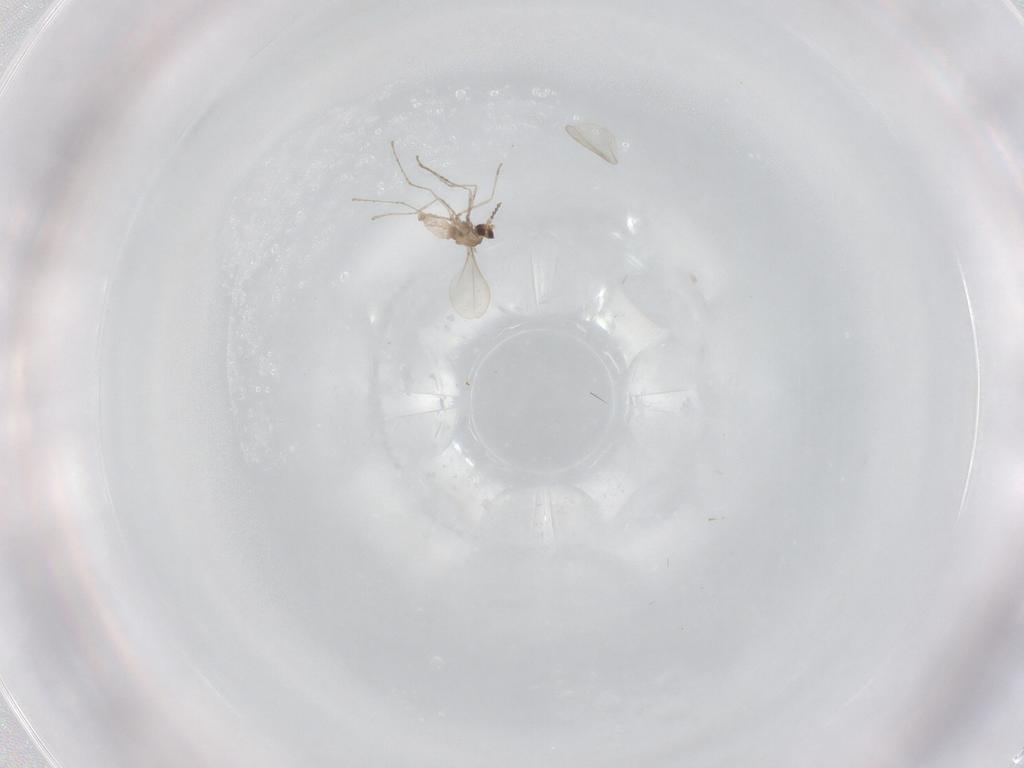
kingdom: Animalia
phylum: Arthropoda
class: Insecta
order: Diptera
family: Cecidomyiidae
